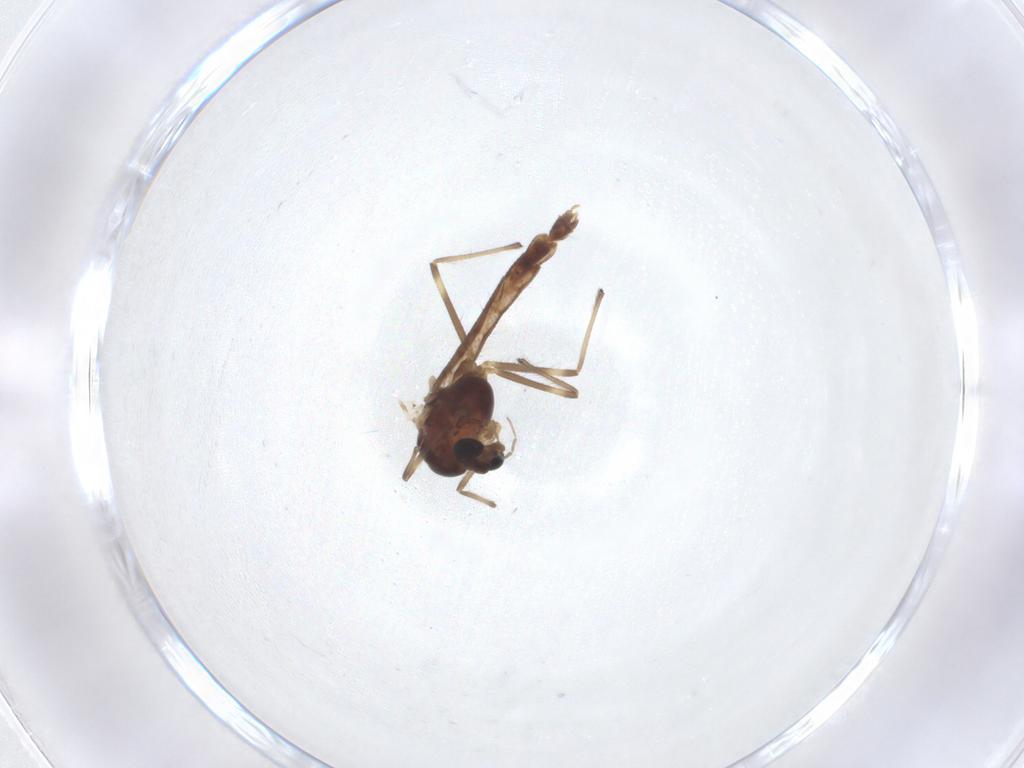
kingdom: Animalia
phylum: Arthropoda
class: Insecta
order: Diptera
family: Chironomidae
